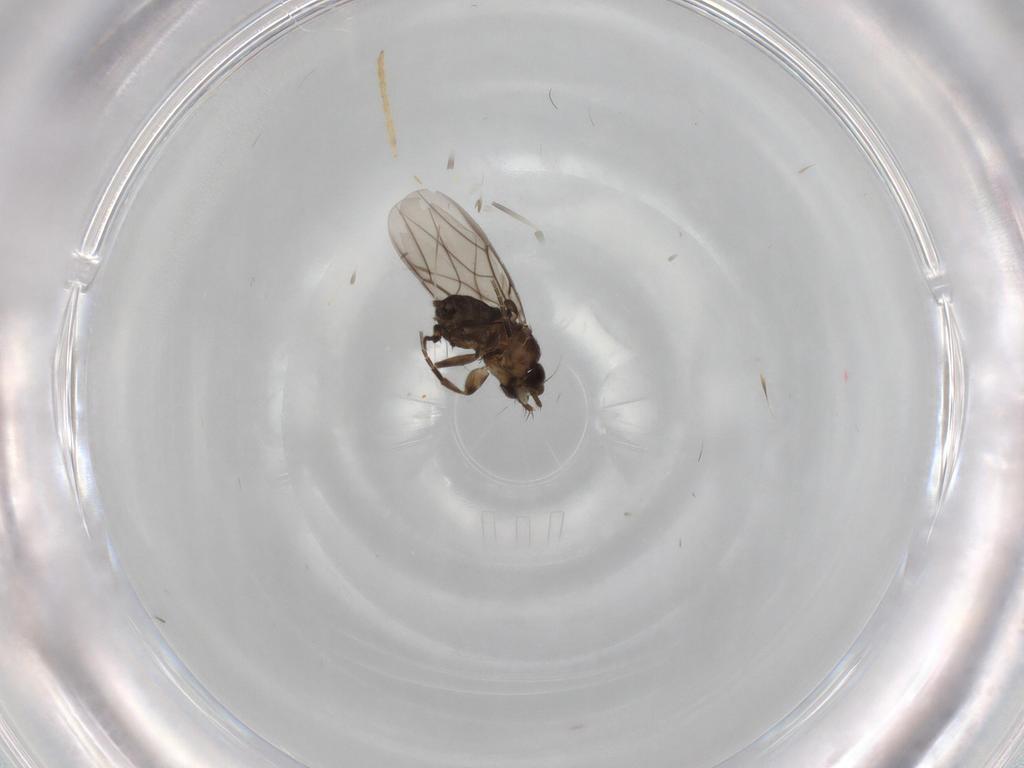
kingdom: Animalia
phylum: Arthropoda
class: Insecta
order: Diptera
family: Phoridae
